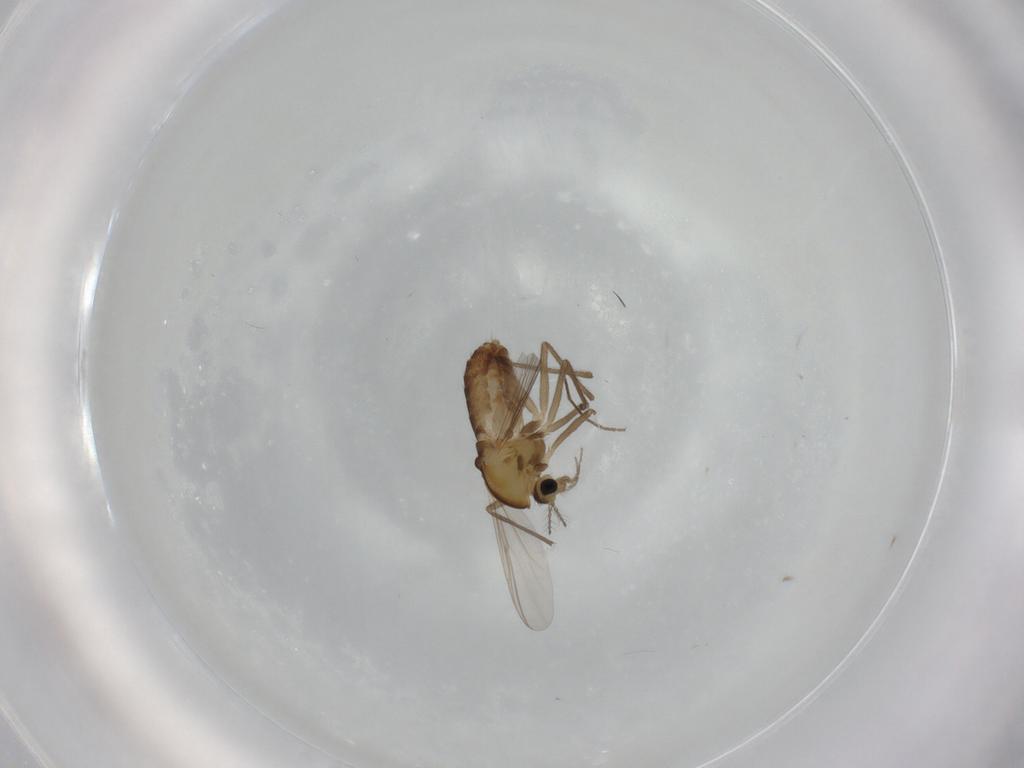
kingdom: Animalia
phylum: Arthropoda
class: Insecta
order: Diptera
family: Chironomidae
